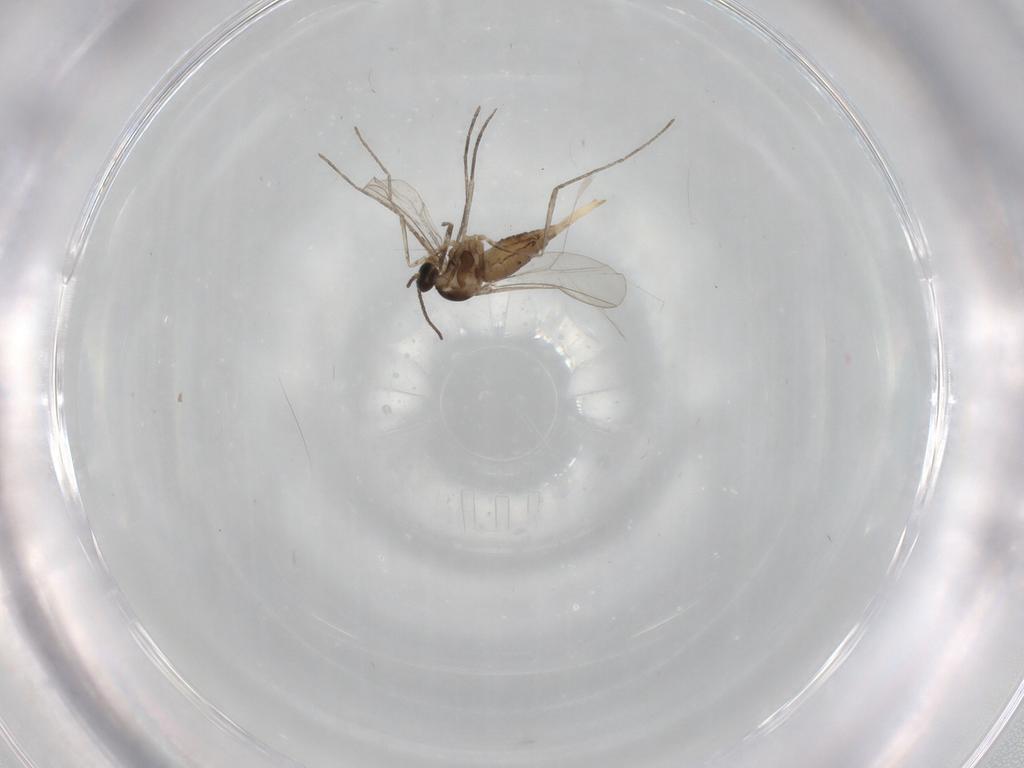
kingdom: Animalia
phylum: Arthropoda
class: Insecta
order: Diptera
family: Sciaridae
